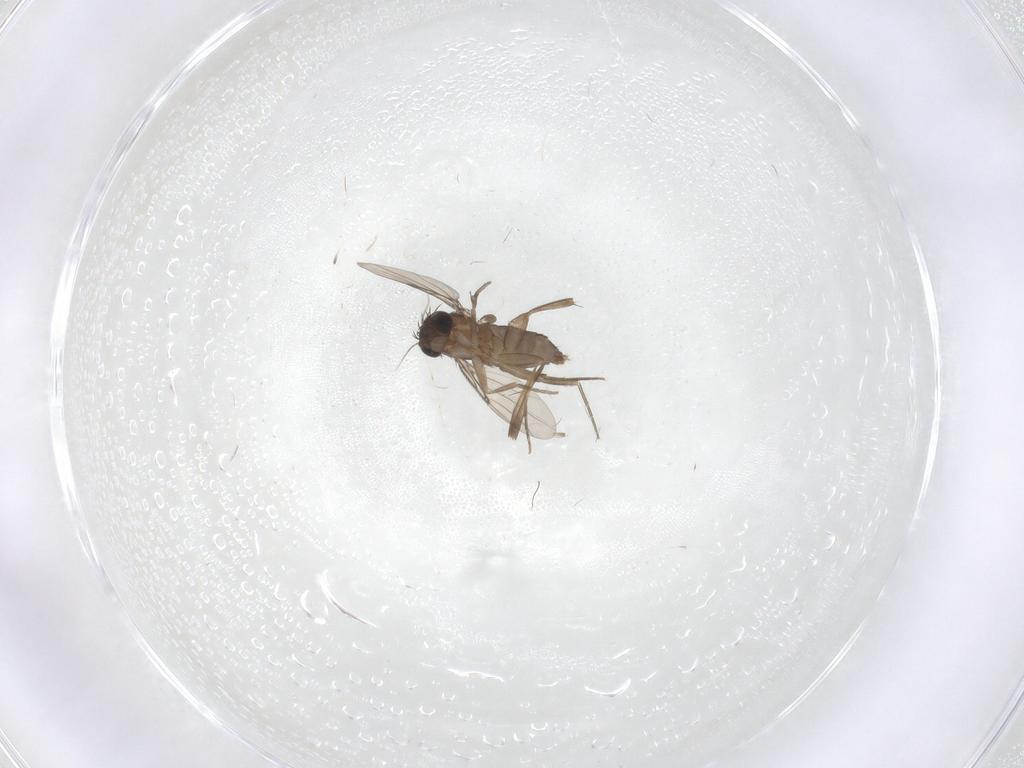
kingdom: Animalia
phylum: Arthropoda
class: Insecta
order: Diptera
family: Phoridae
